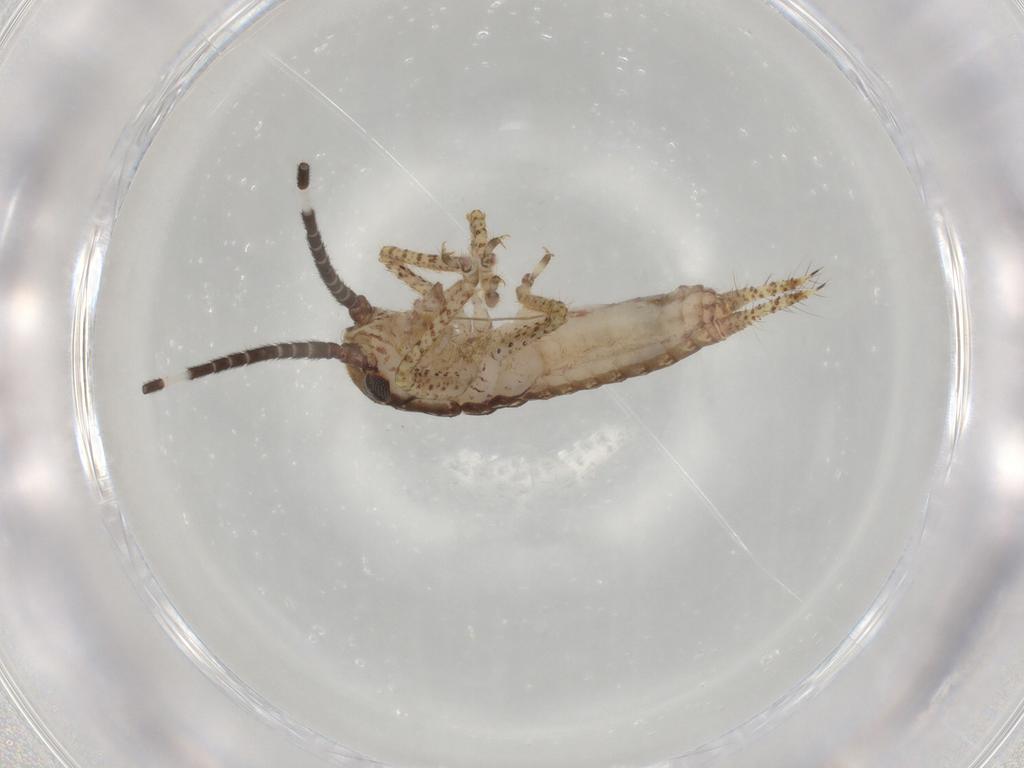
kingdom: Animalia
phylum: Arthropoda
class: Insecta
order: Orthoptera
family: Gryllidae
